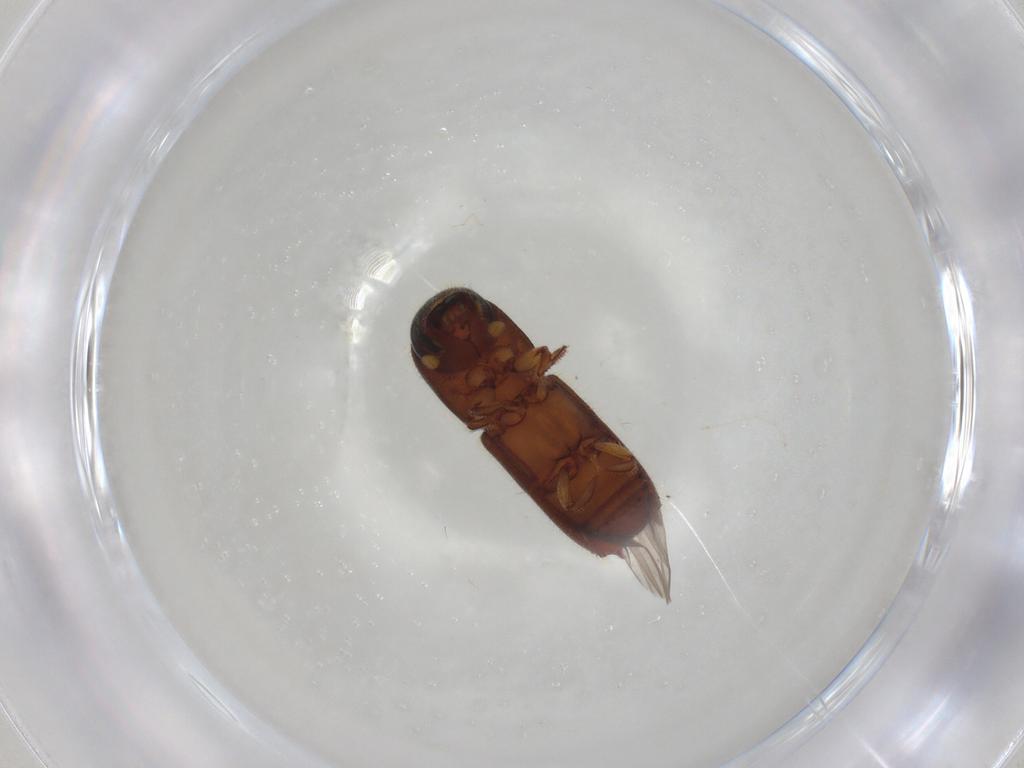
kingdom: Animalia
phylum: Arthropoda
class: Insecta
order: Coleoptera
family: Curculionidae
